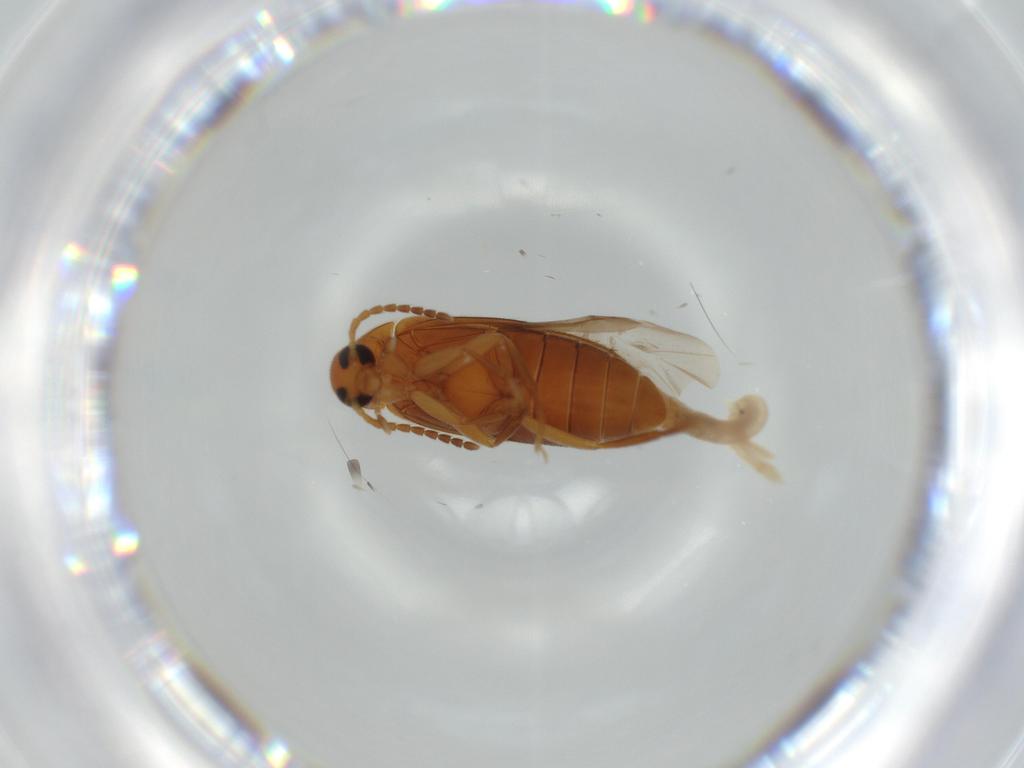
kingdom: Animalia
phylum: Arthropoda
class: Insecta
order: Coleoptera
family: Scraptiidae
